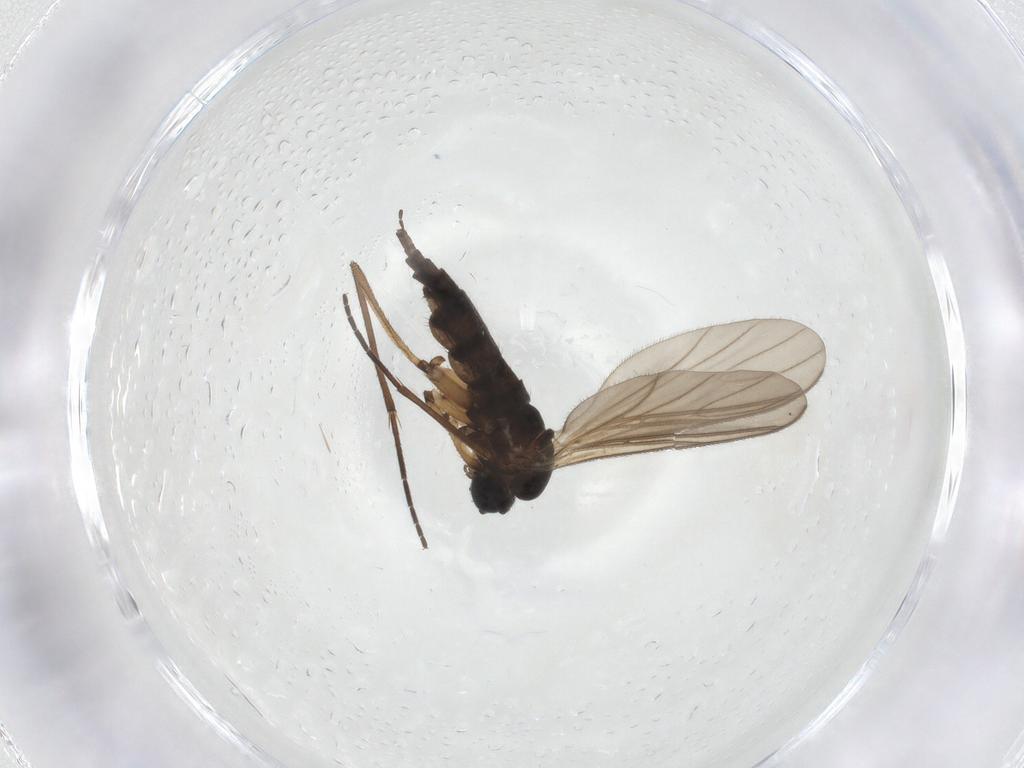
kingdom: Animalia
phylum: Arthropoda
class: Insecta
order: Diptera
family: Sciaridae
